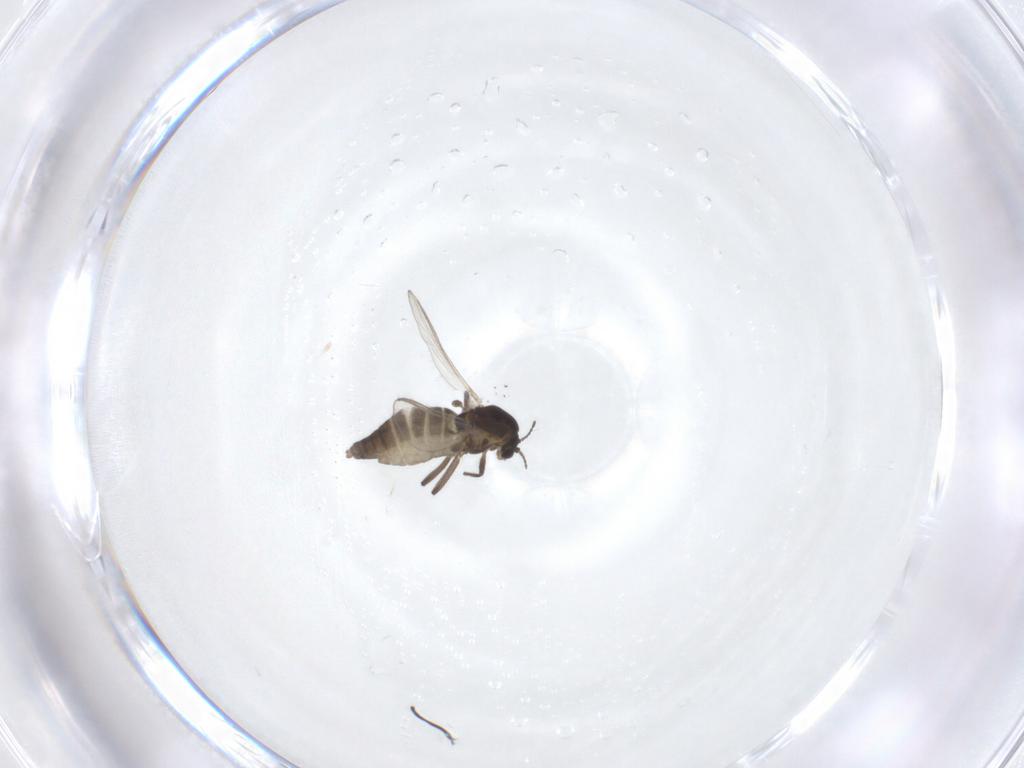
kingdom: Animalia
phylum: Arthropoda
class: Insecta
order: Diptera
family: Chironomidae
